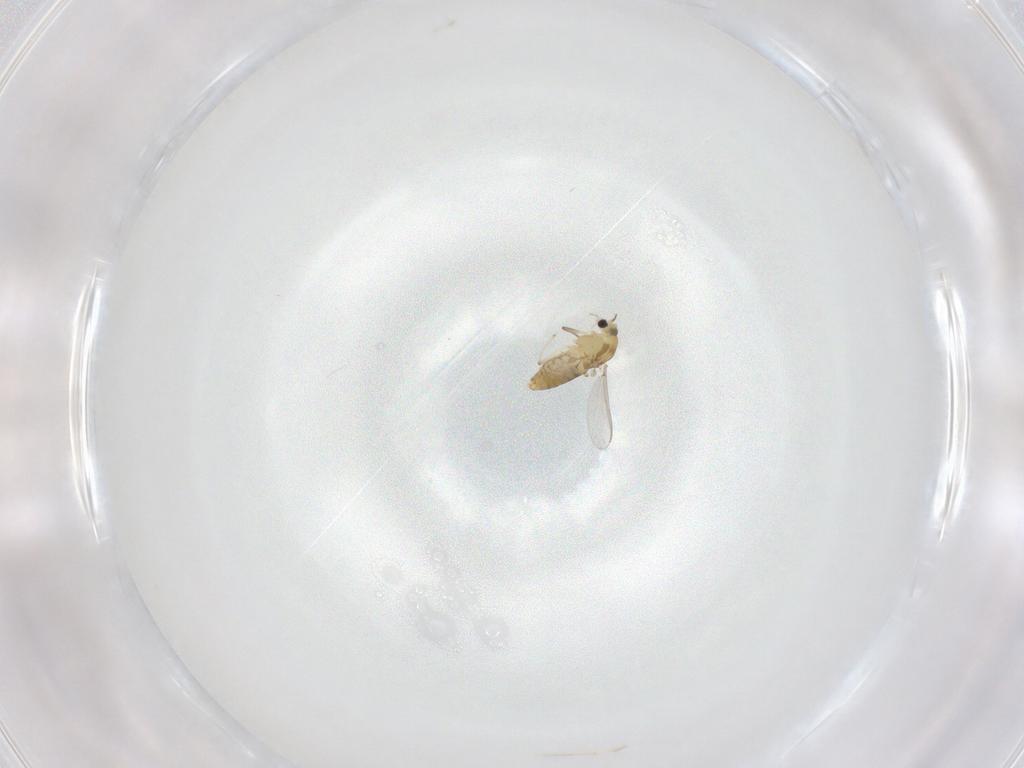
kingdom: Animalia
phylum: Arthropoda
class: Insecta
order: Diptera
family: Chironomidae
